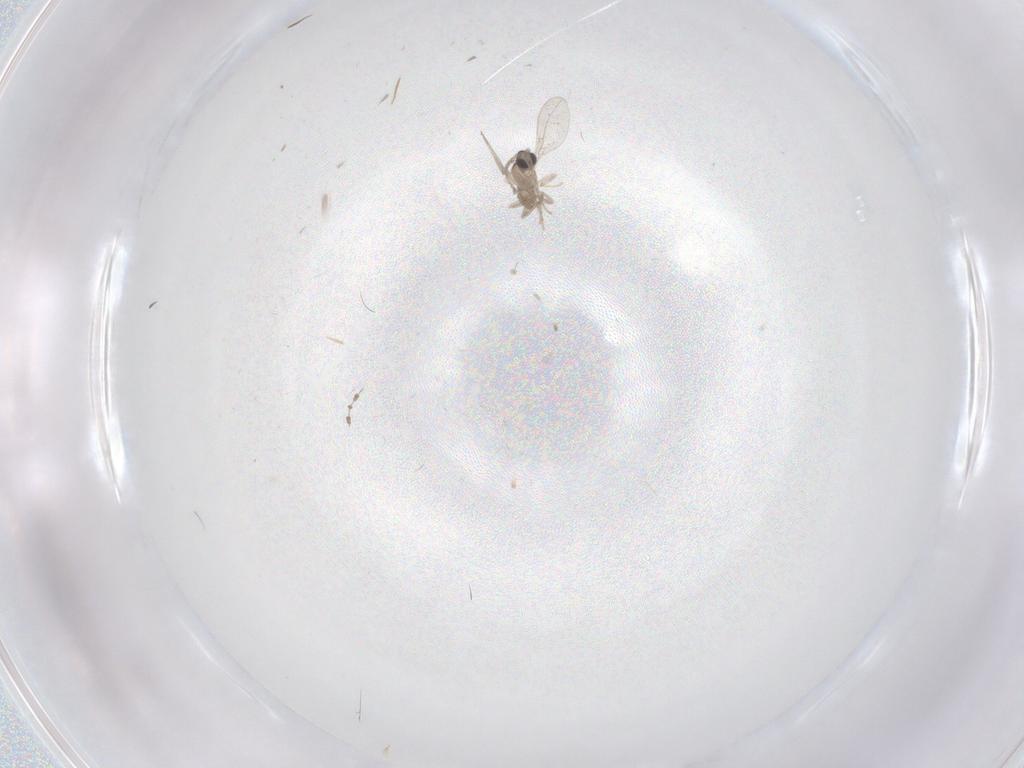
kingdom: Animalia
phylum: Arthropoda
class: Insecta
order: Diptera
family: Cecidomyiidae
